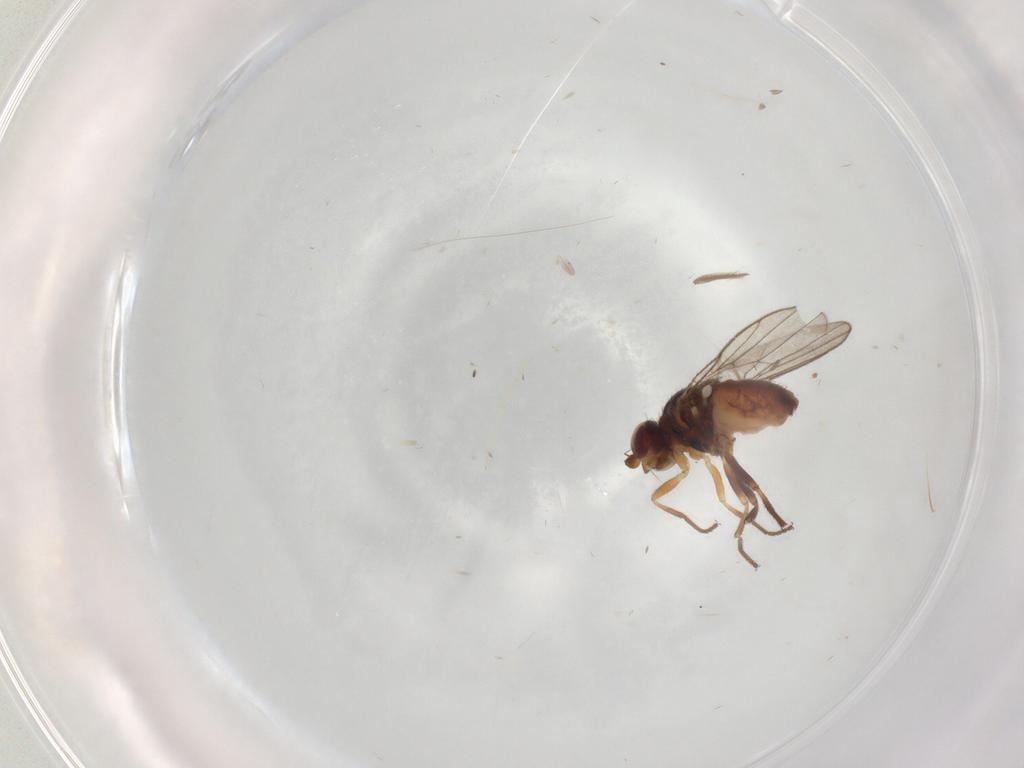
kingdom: Animalia
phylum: Arthropoda
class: Insecta
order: Diptera
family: Chloropidae
